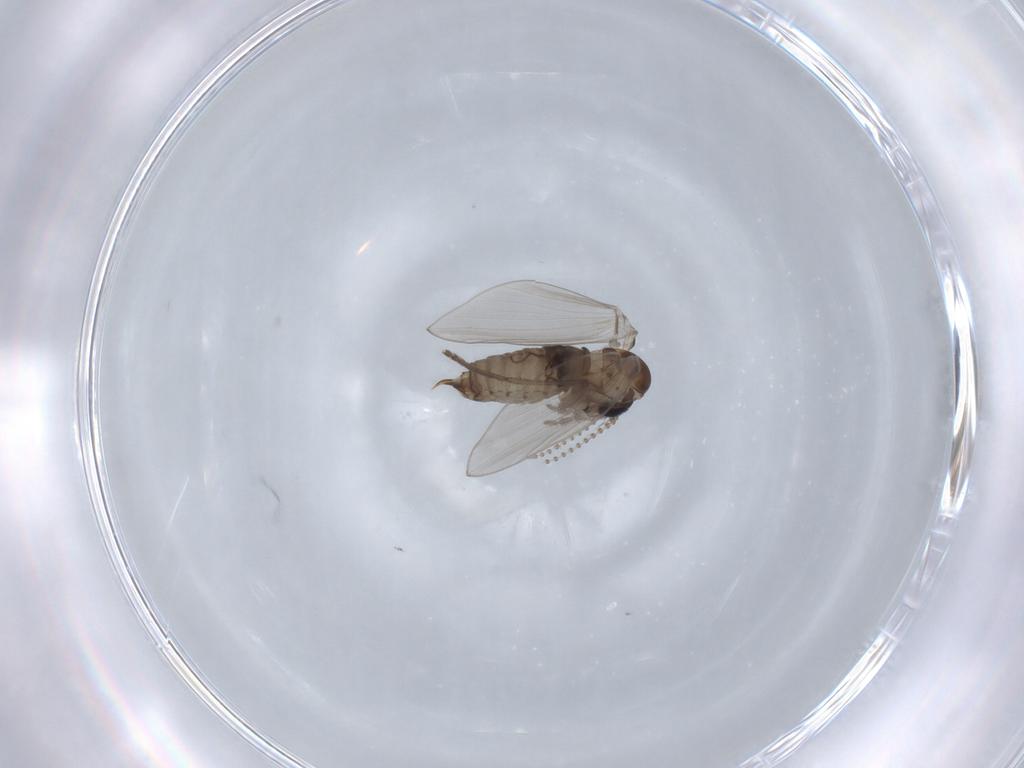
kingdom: Animalia
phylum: Arthropoda
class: Insecta
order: Diptera
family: Psychodidae
